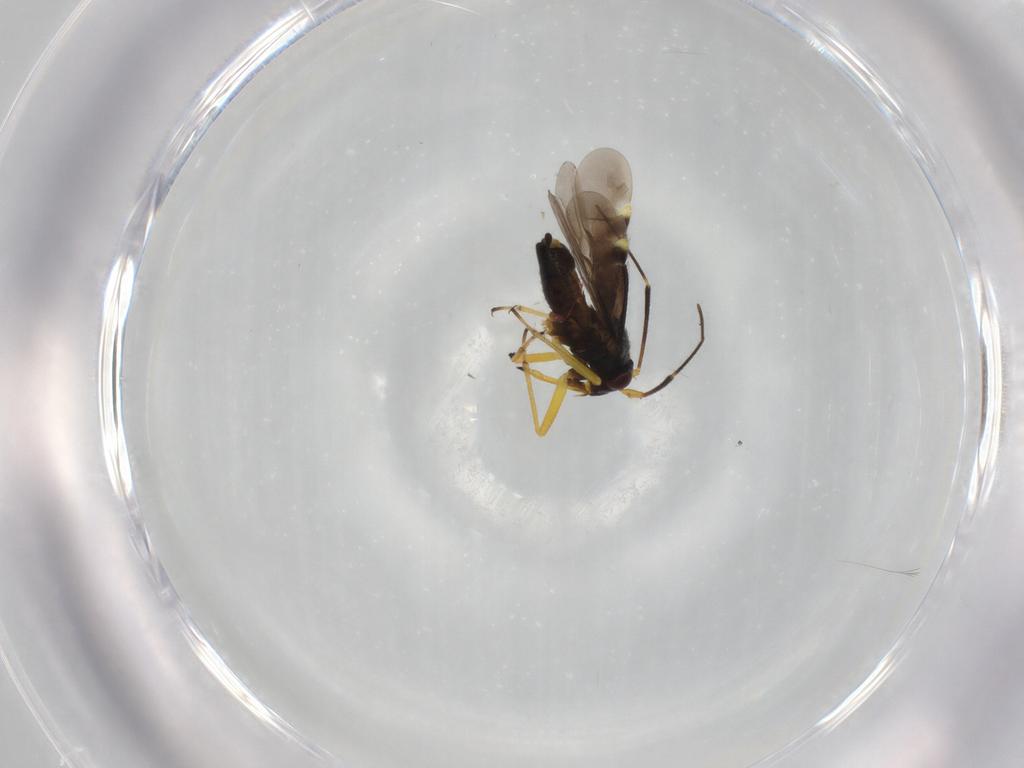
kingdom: Animalia
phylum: Arthropoda
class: Insecta
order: Hemiptera
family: Miridae
